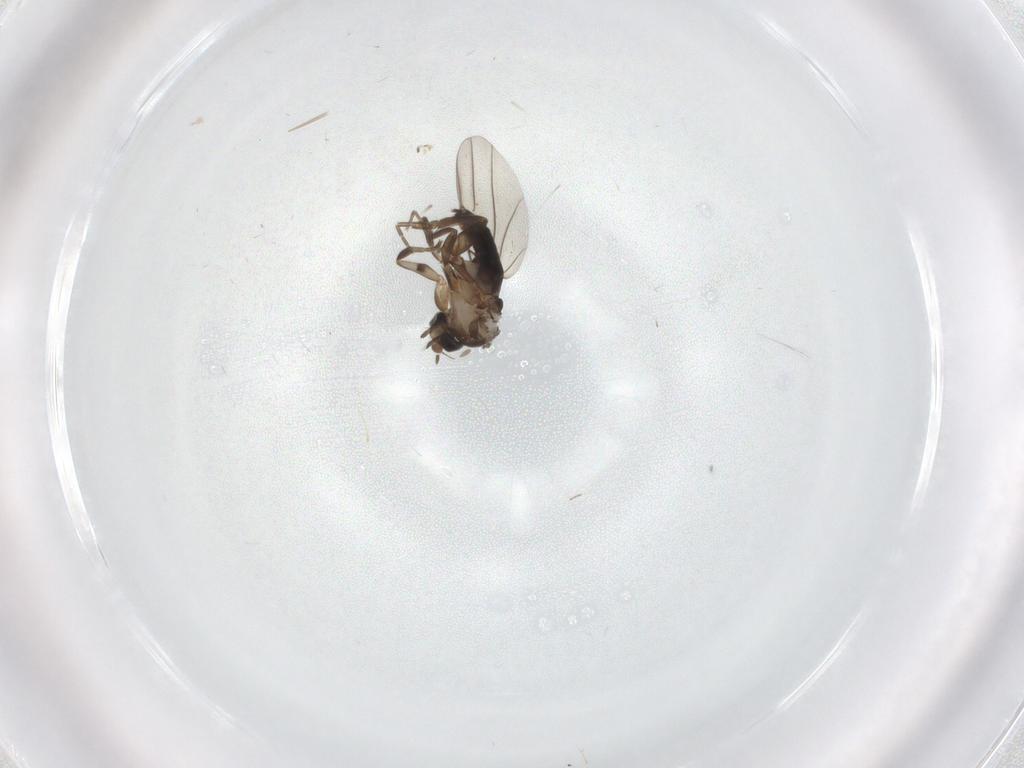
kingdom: Animalia
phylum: Arthropoda
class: Insecta
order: Diptera
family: Phoridae
